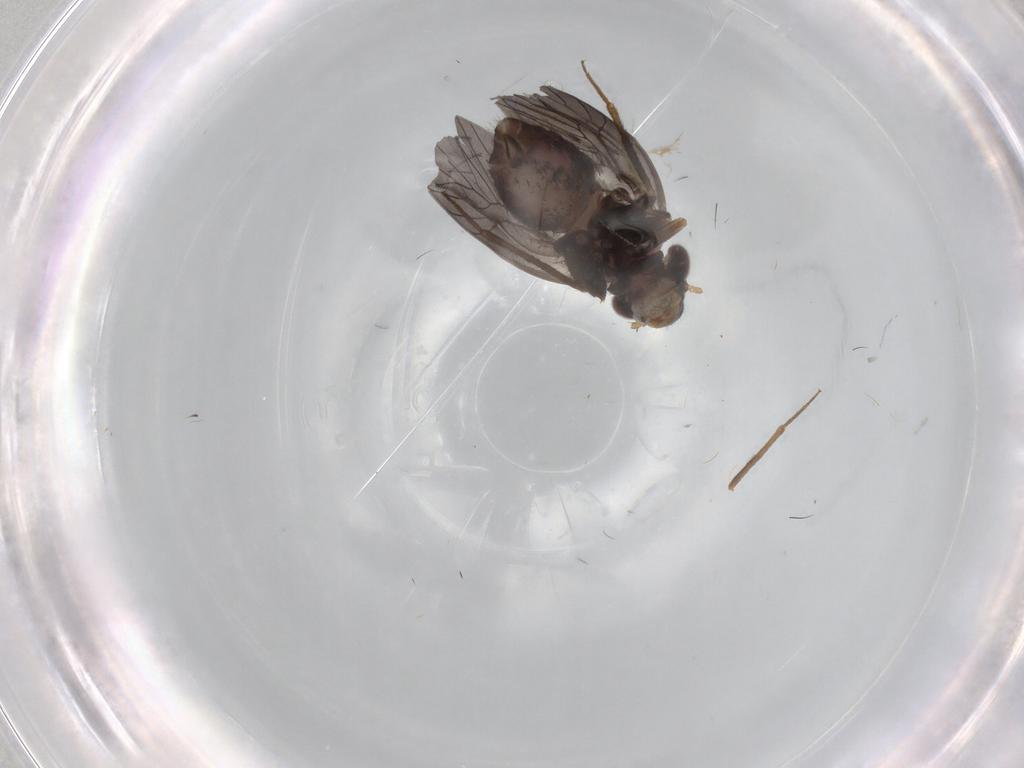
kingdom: Animalia
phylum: Arthropoda
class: Insecta
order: Psocodea
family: Lepidopsocidae
